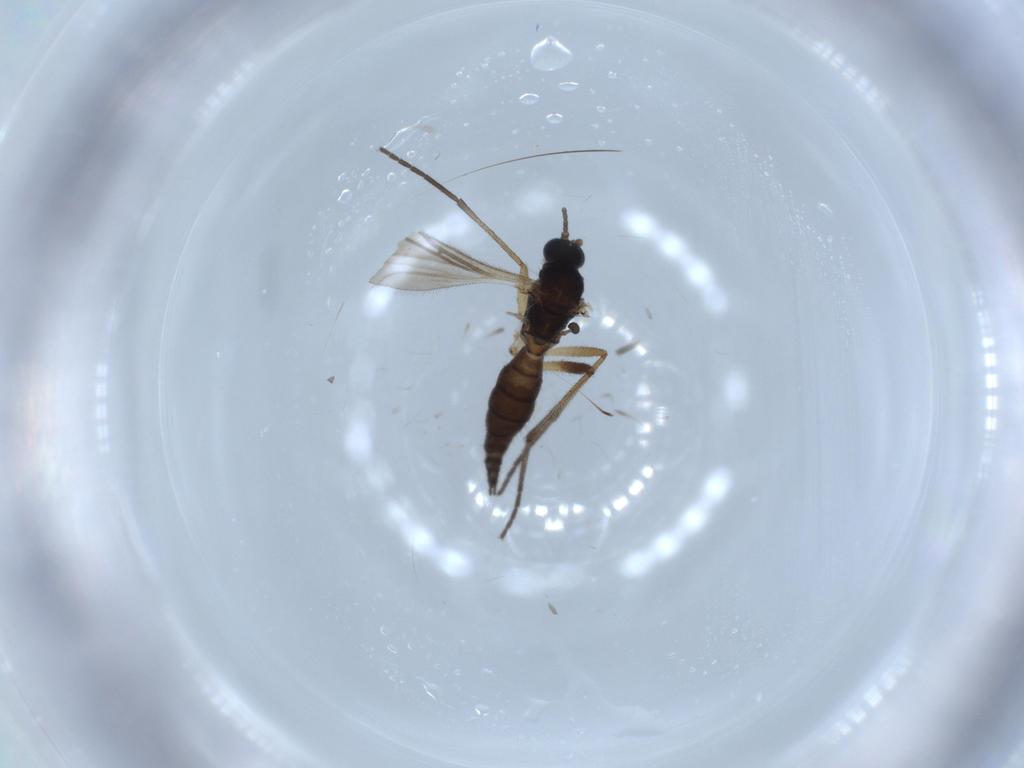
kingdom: Animalia
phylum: Arthropoda
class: Insecta
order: Diptera
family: Sciaridae
